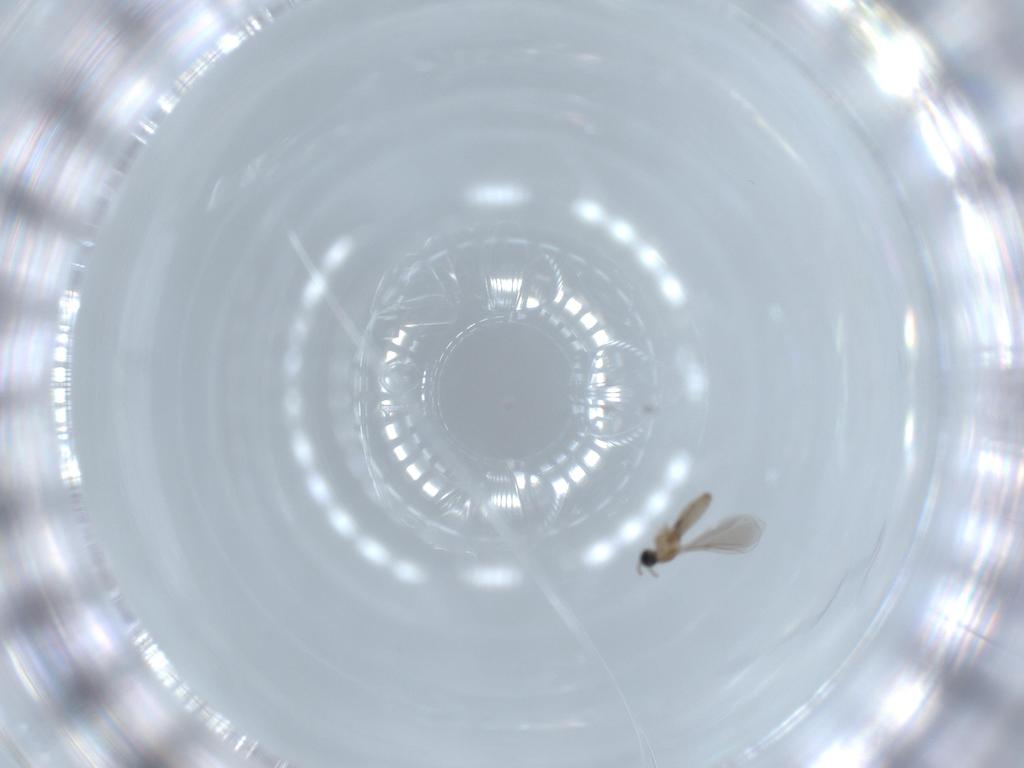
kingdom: Animalia
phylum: Arthropoda
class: Insecta
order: Diptera
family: Cecidomyiidae
